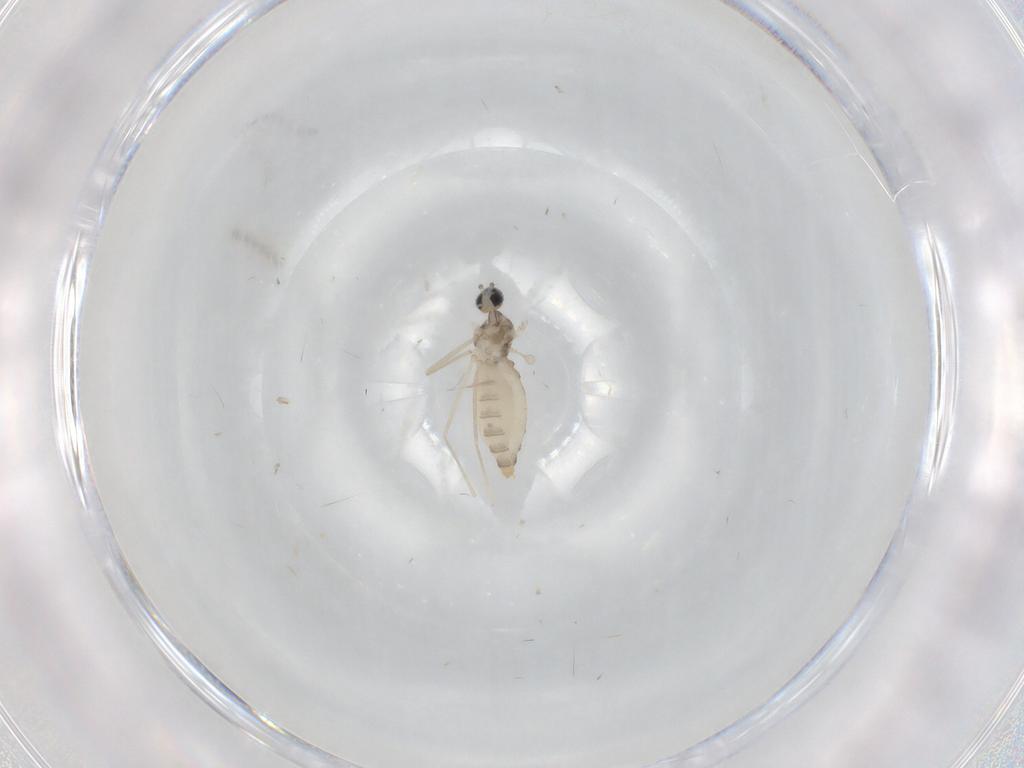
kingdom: Animalia
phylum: Arthropoda
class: Insecta
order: Diptera
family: Cecidomyiidae
